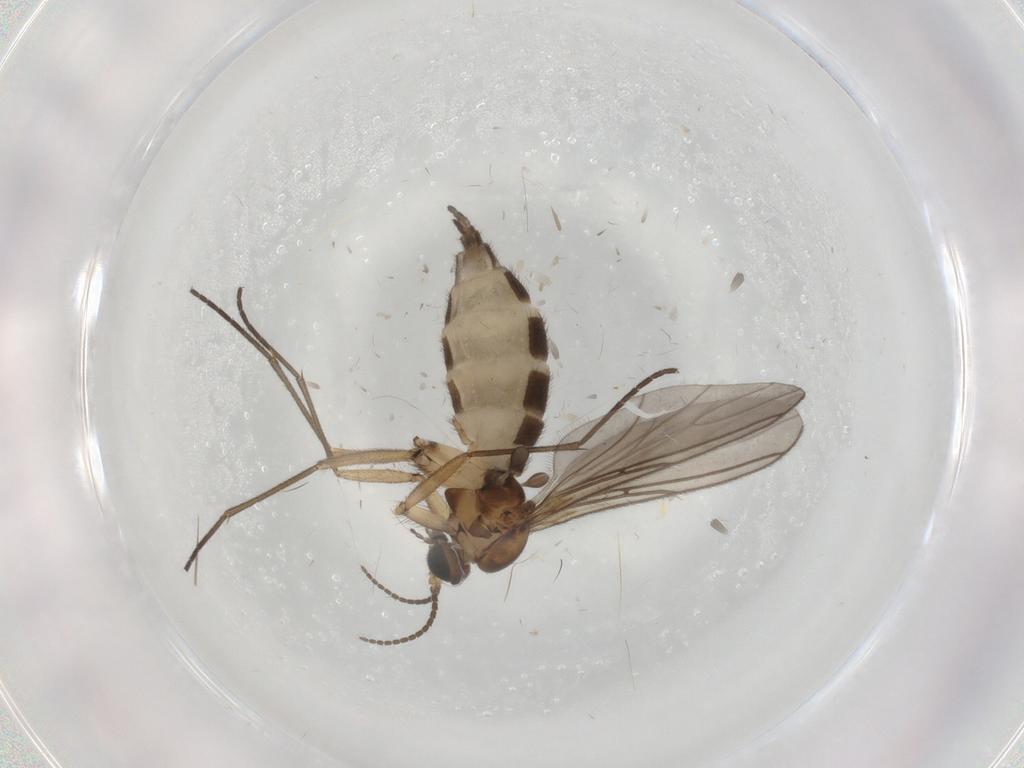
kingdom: Animalia
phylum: Arthropoda
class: Insecta
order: Diptera
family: Sciaridae
